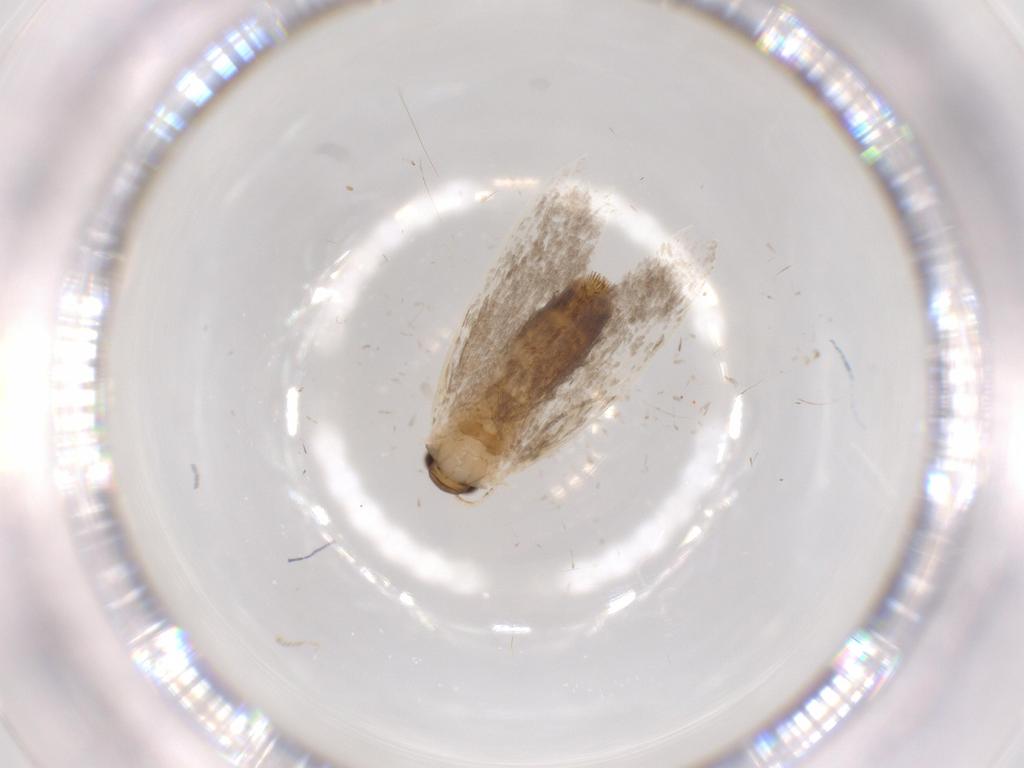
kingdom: Animalia
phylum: Arthropoda
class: Insecta
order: Lepidoptera
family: Tineidae
